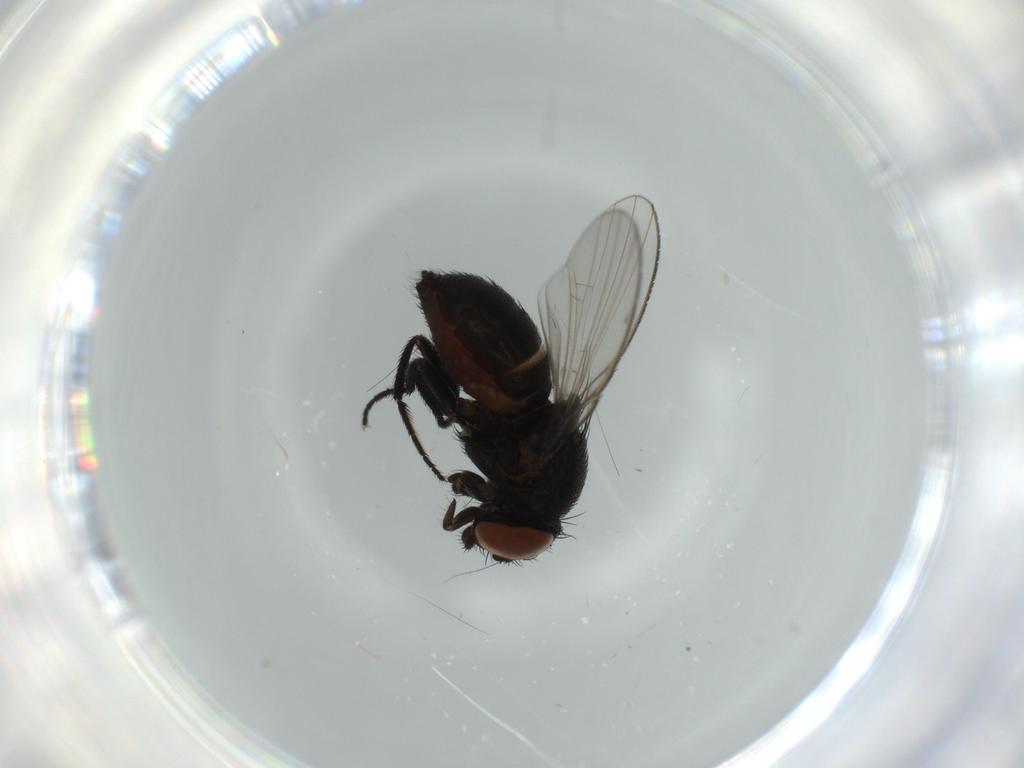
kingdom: Animalia
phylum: Arthropoda
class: Insecta
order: Diptera
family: Milichiidae
